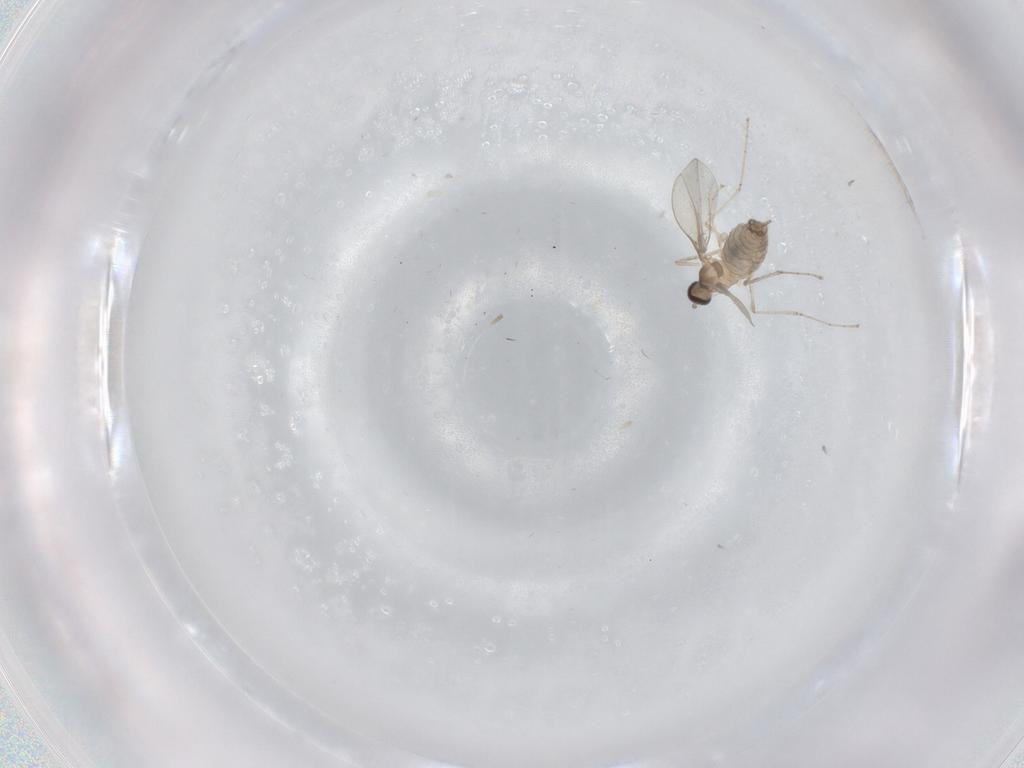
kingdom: Animalia
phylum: Arthropoda
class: Insecta
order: Diptera
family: Cecidomyiidae
